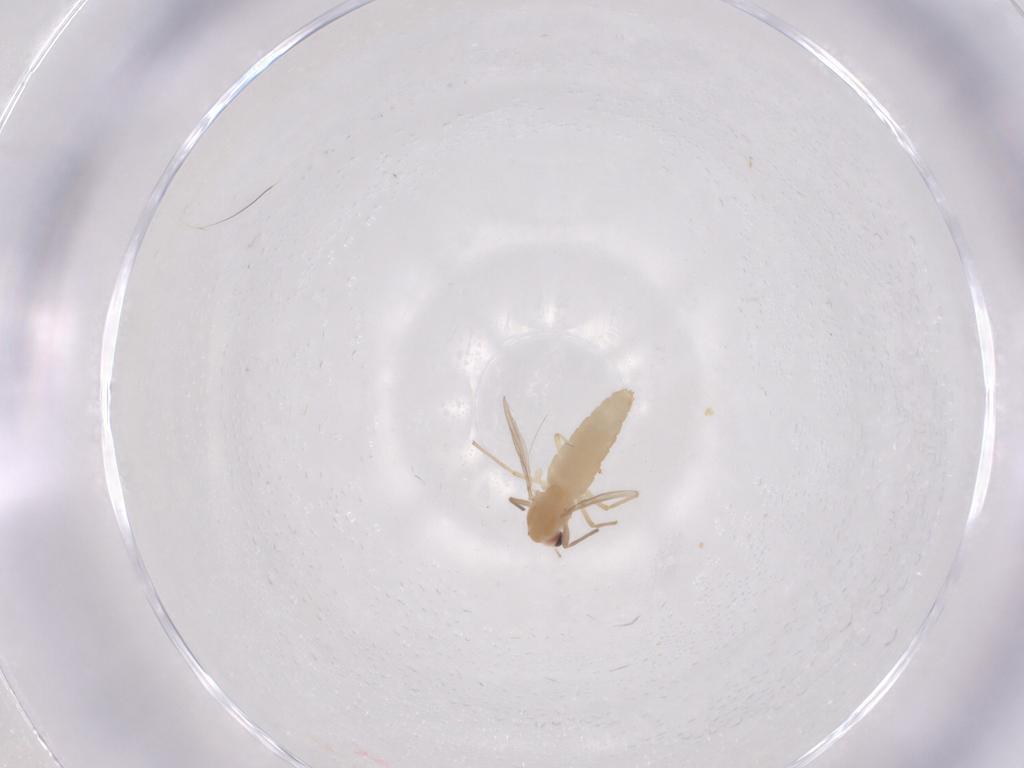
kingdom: Animalia
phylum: Arthropoda
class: Insecta
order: Diptera
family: Chironomidae
